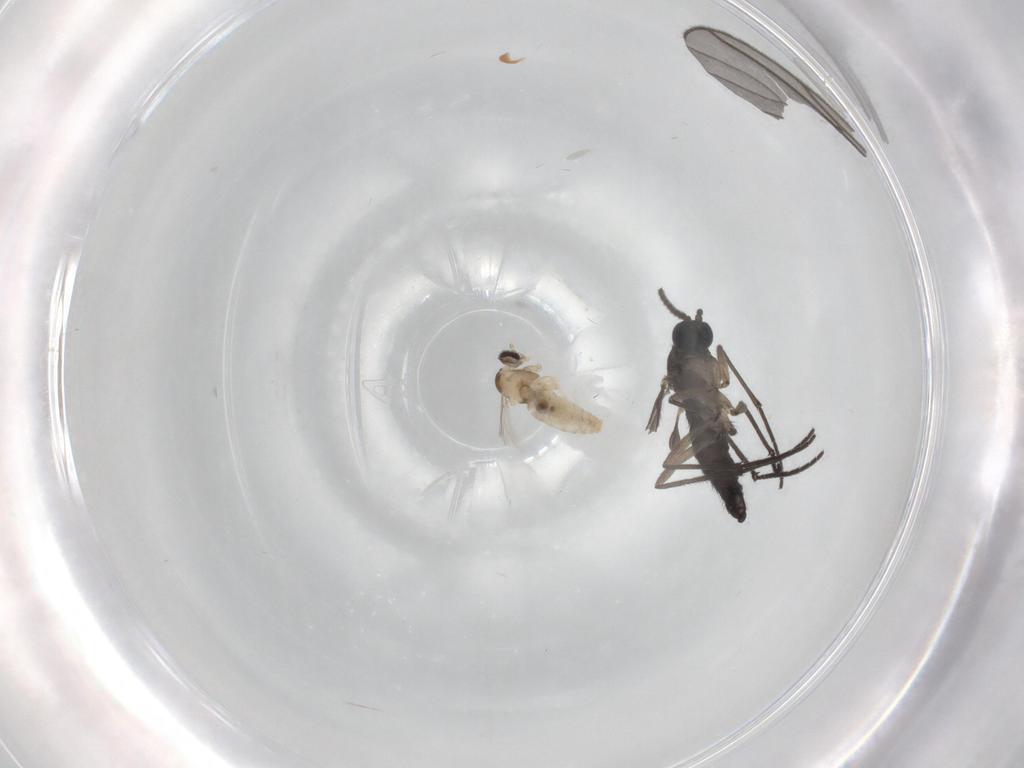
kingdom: Animalia
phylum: Arthropoda
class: Insecta
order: Diptera
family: Sciaridae
